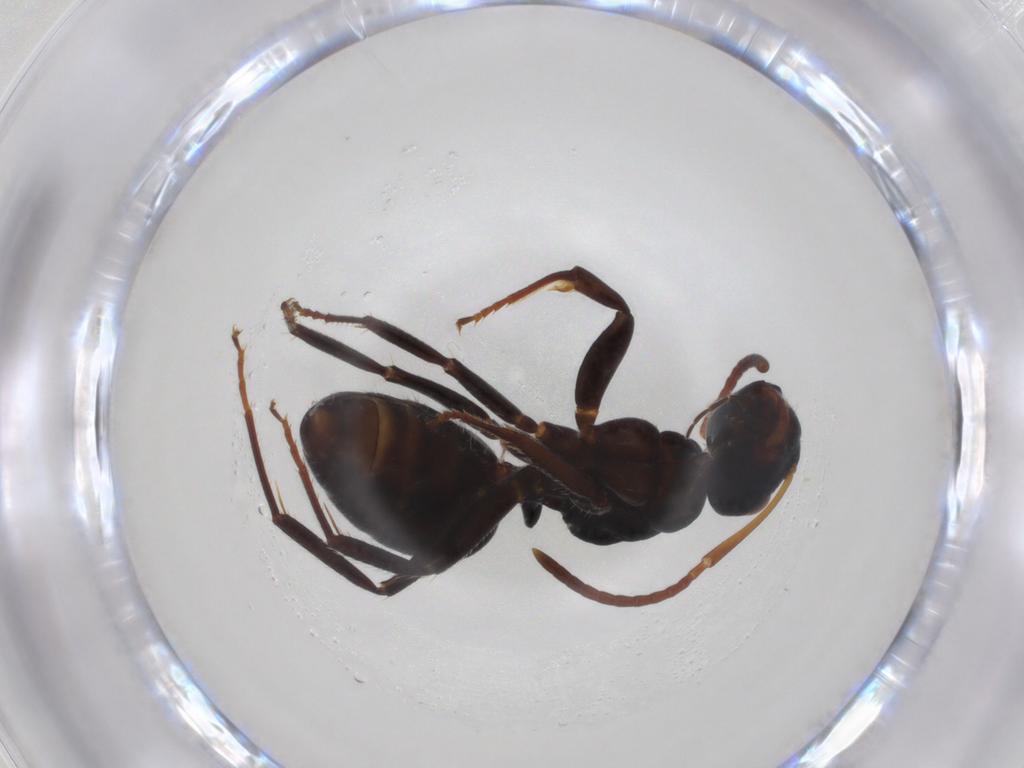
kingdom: Animalia
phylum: Arthropoda
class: Insecta
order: Hymenoptera
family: Formicidae
